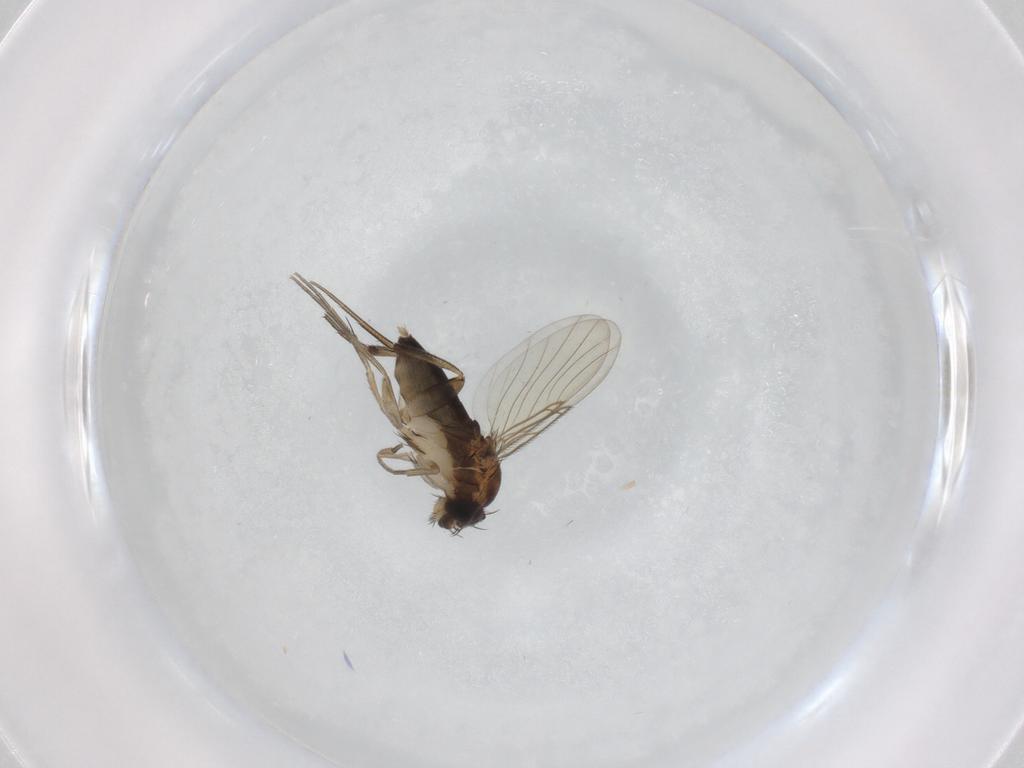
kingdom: Animalia
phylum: Arthropoda
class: Insecta
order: Diptera
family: Phoridae
